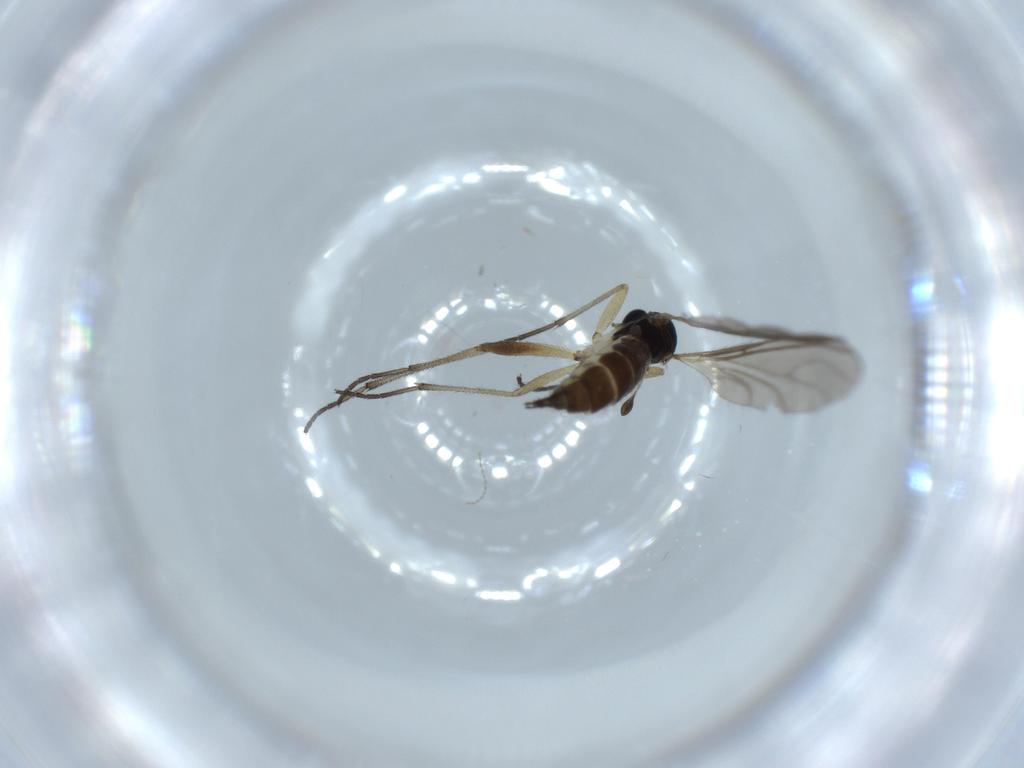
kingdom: Animalia
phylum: Arthropoda
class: Insecta
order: Diptera
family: Sciaridae
